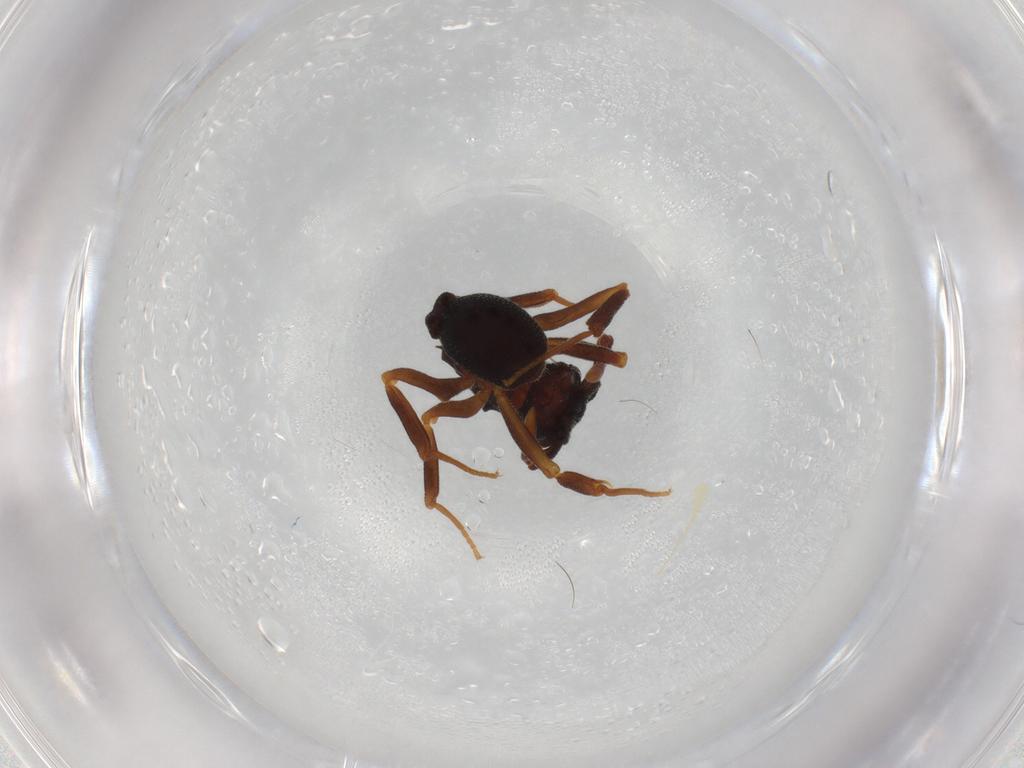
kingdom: Animalia
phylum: Arthropoda
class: Insecta
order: Hymenoptera
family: Formicidae
